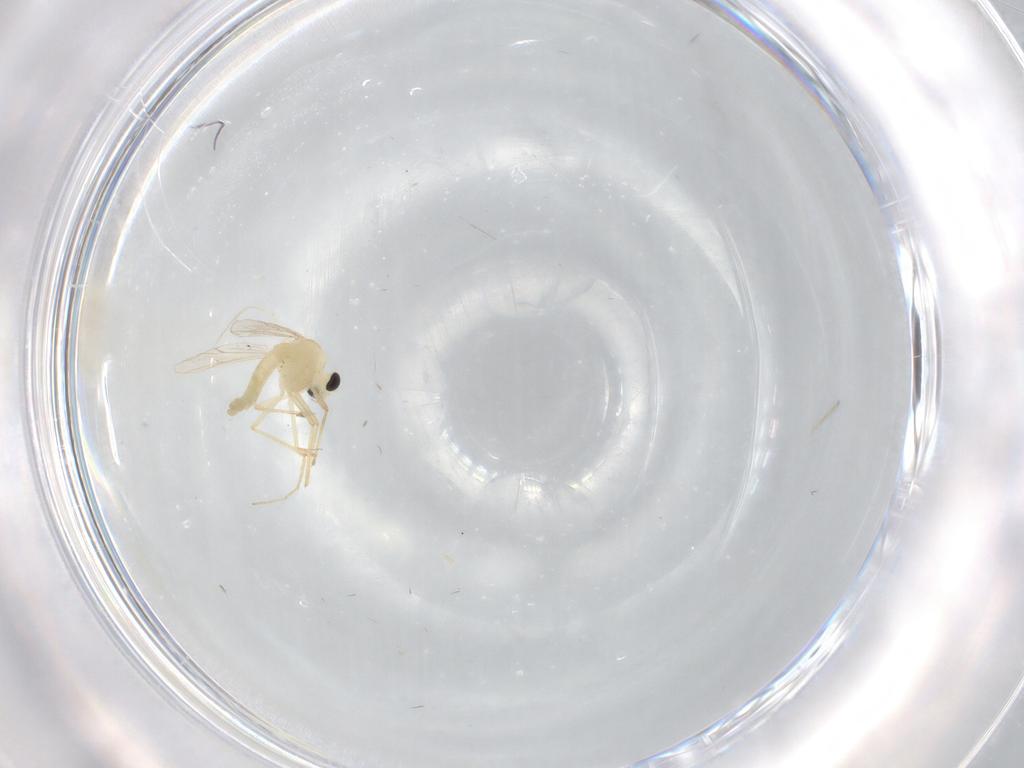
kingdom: Animalia
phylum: Arthropoda
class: Insecta
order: Diptera
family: Chironomidae
